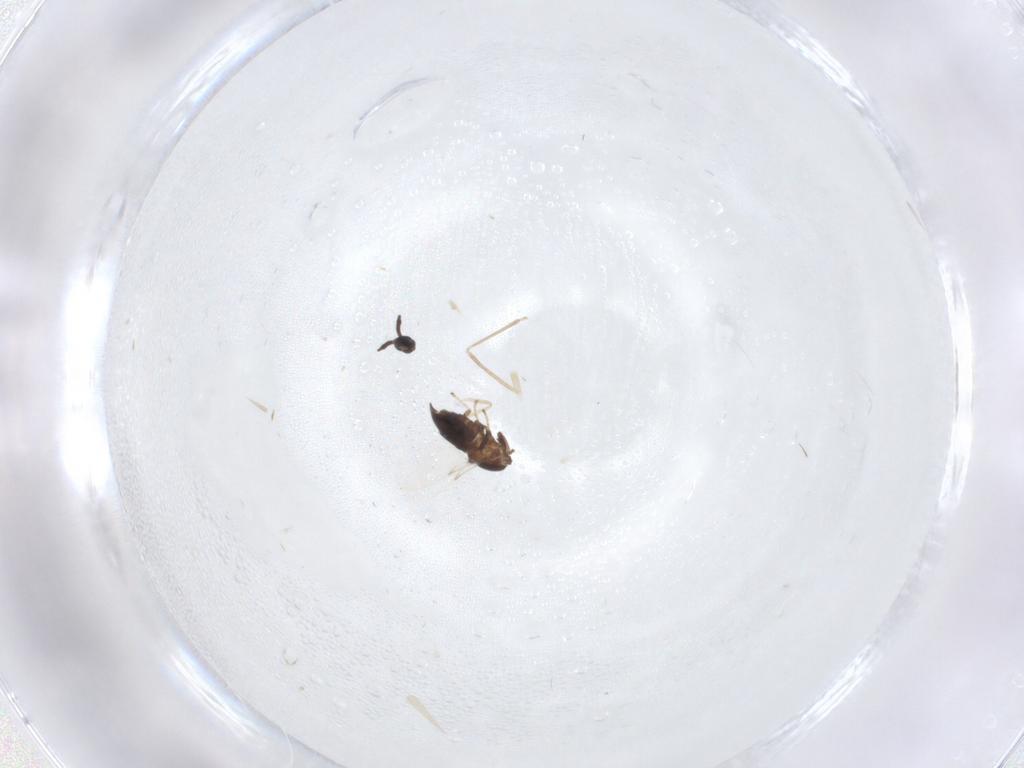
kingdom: Animalia
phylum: Arthropoda
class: Insecta
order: Diptera
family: Scatopsidae
